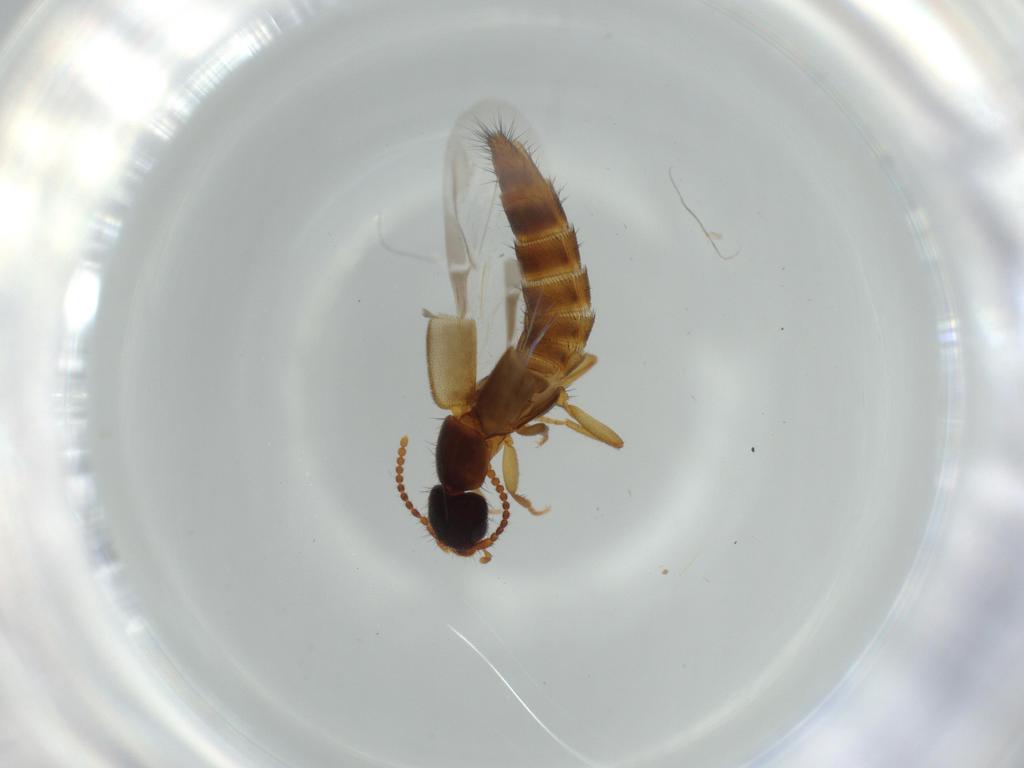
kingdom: Animalia
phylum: Arthropoda
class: Insecta
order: Coleoptera
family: Staphylinidae
